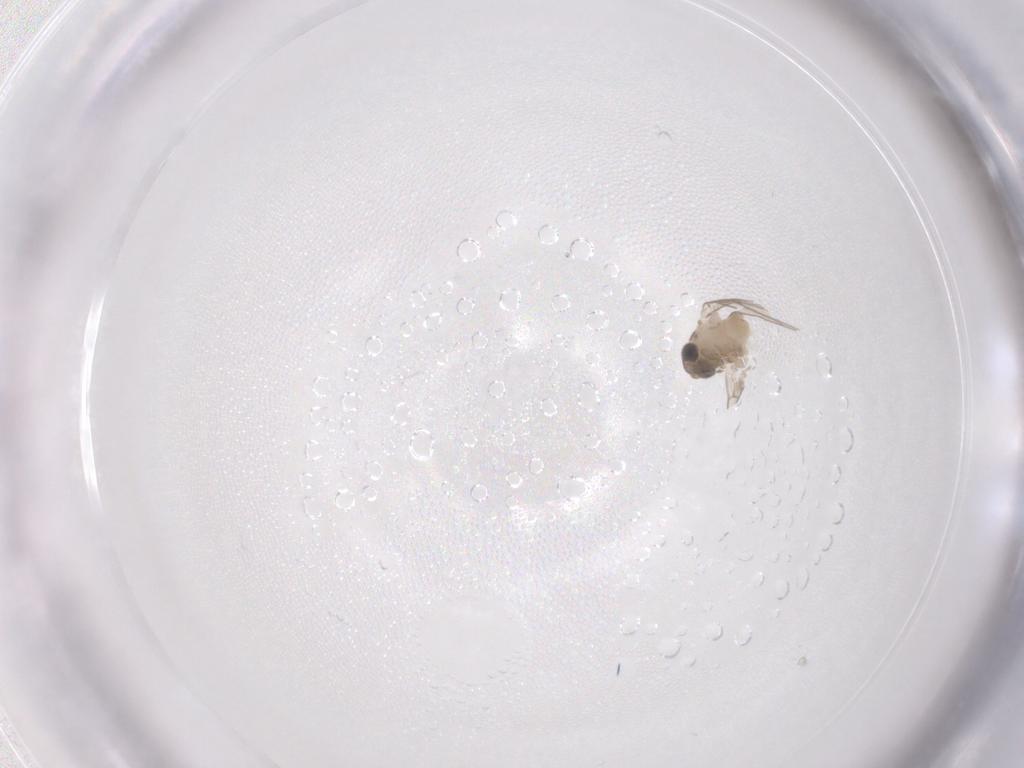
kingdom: Animalia
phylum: Arthropoda
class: Insecta
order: Diptera
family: Psychodidae
